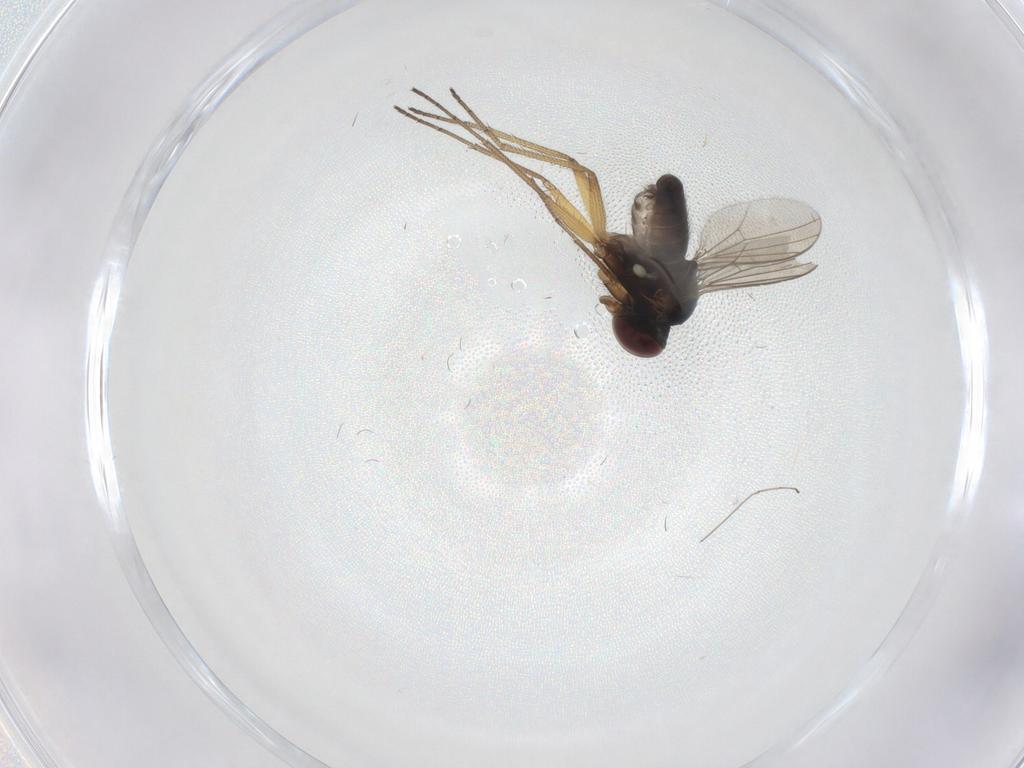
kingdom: Animalia
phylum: Arthropoda
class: Insecta
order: Diptera
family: Dolichopodidae
